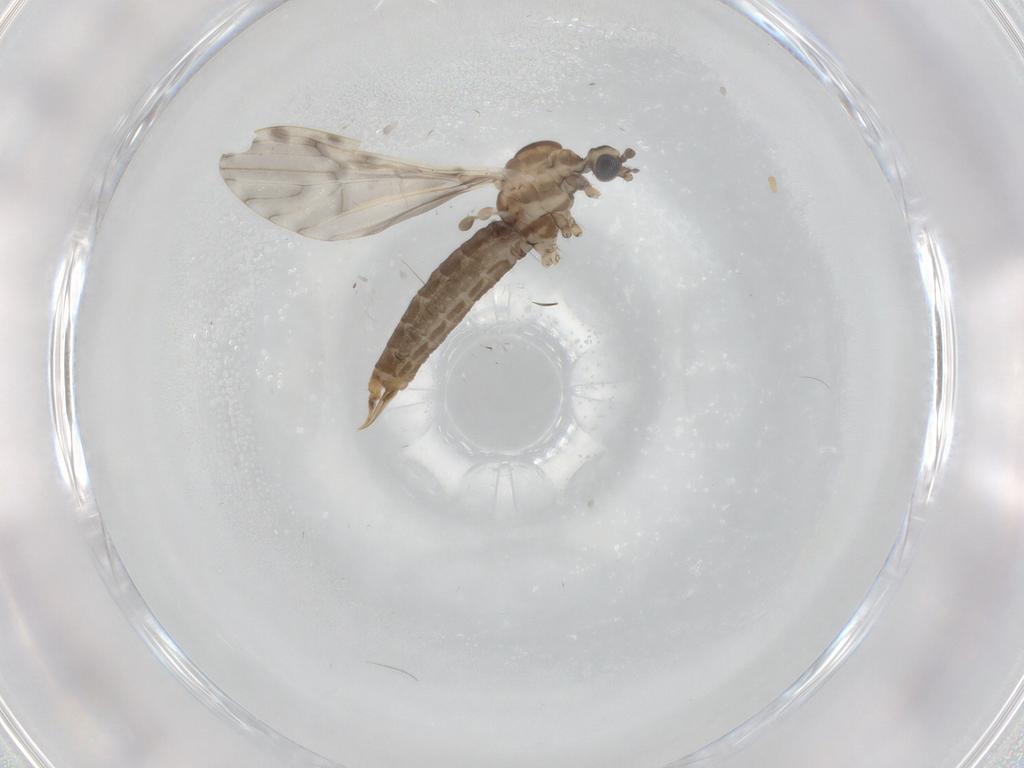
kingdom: Animalia
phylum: Arthropoda
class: Insecta
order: Diptera
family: Limoniidae
